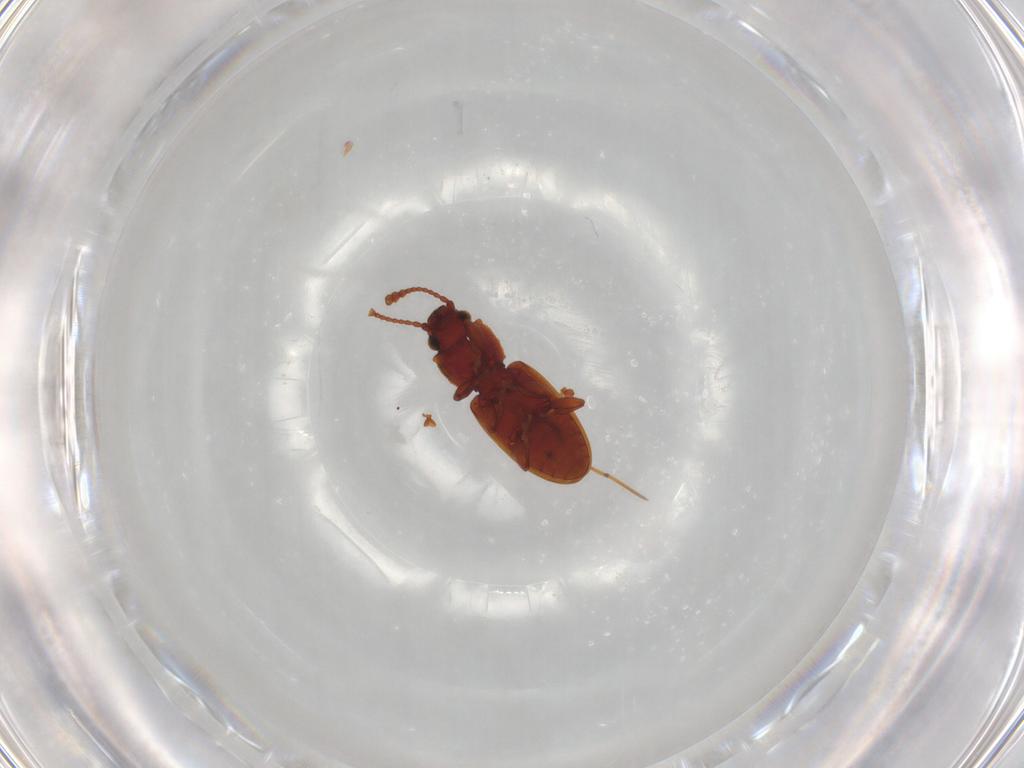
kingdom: Animalia
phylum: Arthropoda
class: Insecta
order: Coleoptera
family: Silvanidae
